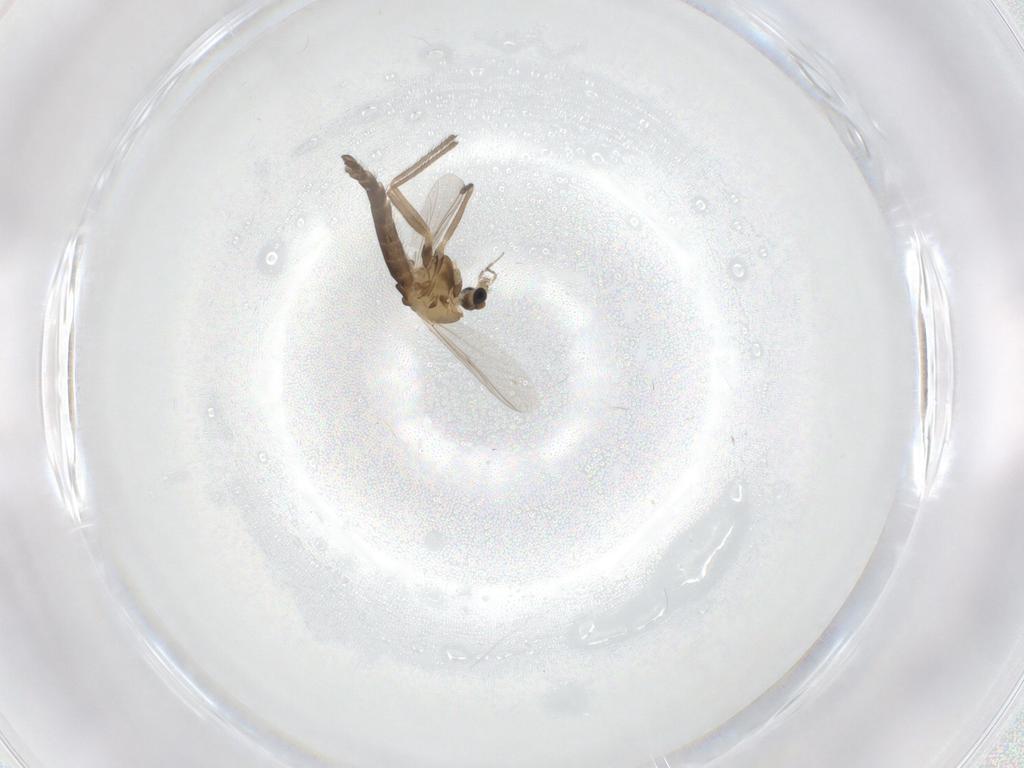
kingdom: Animalia
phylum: Arthropoda
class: Insecta
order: Diptera
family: Chironomidae
